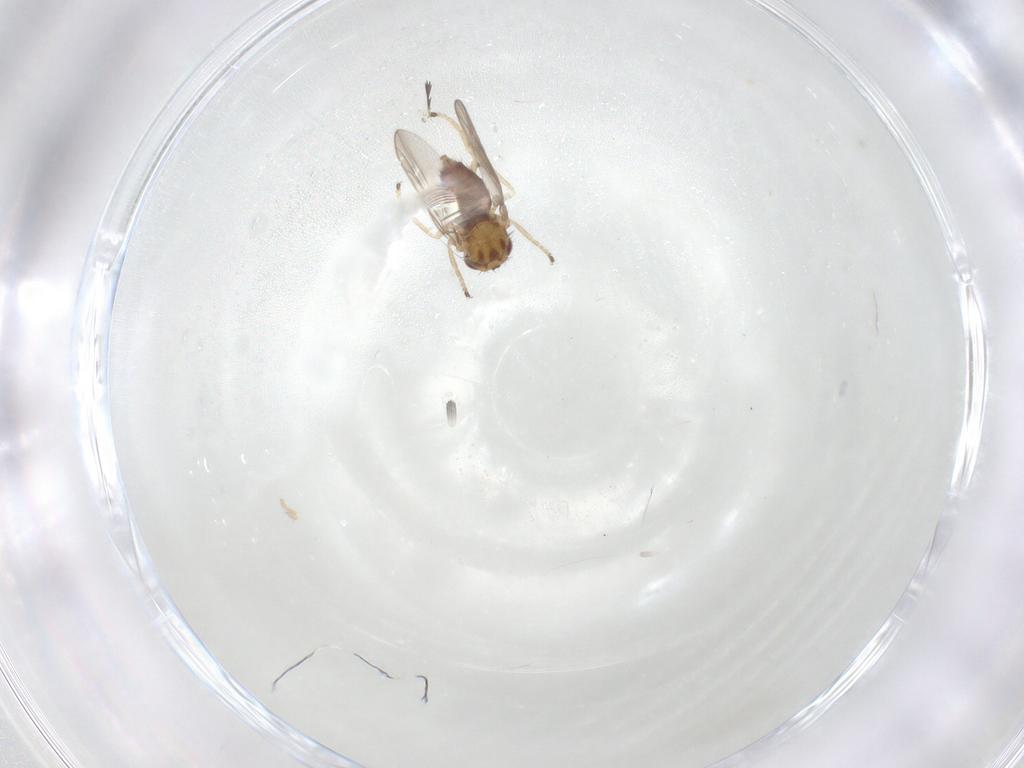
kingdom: Animalia
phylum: Arthropoda
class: Insecta
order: Diptera
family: Chloropidae
